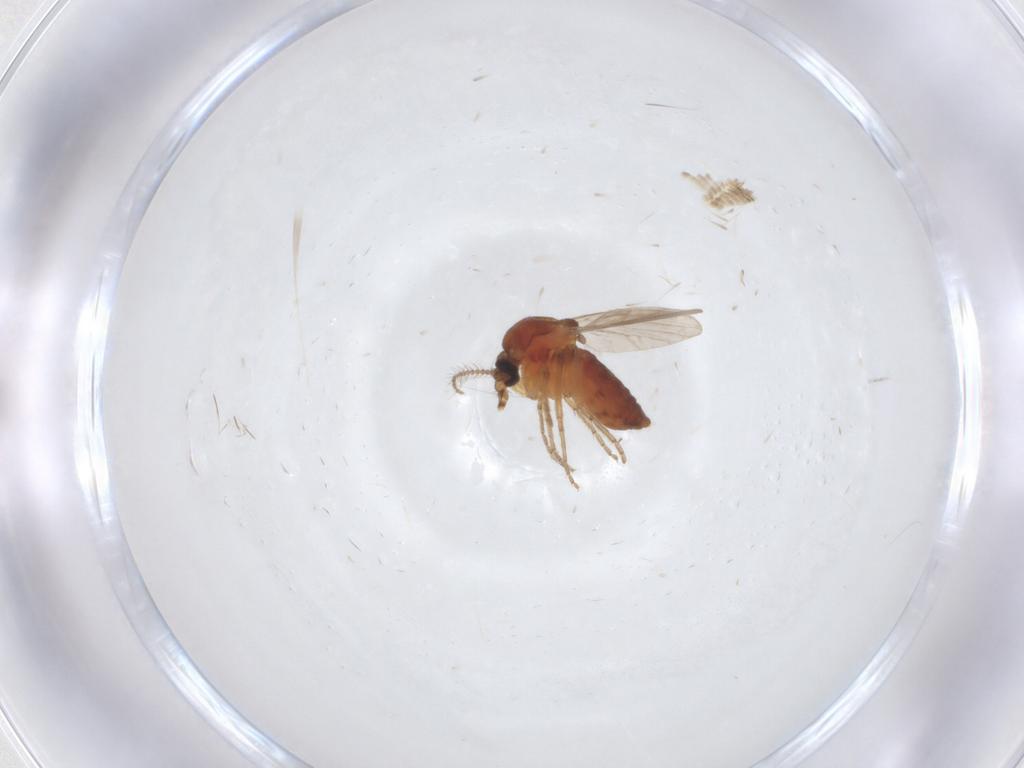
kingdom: Animalia
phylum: Arthropoda
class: Insecta
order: Diptera
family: Ceratopogonidae
